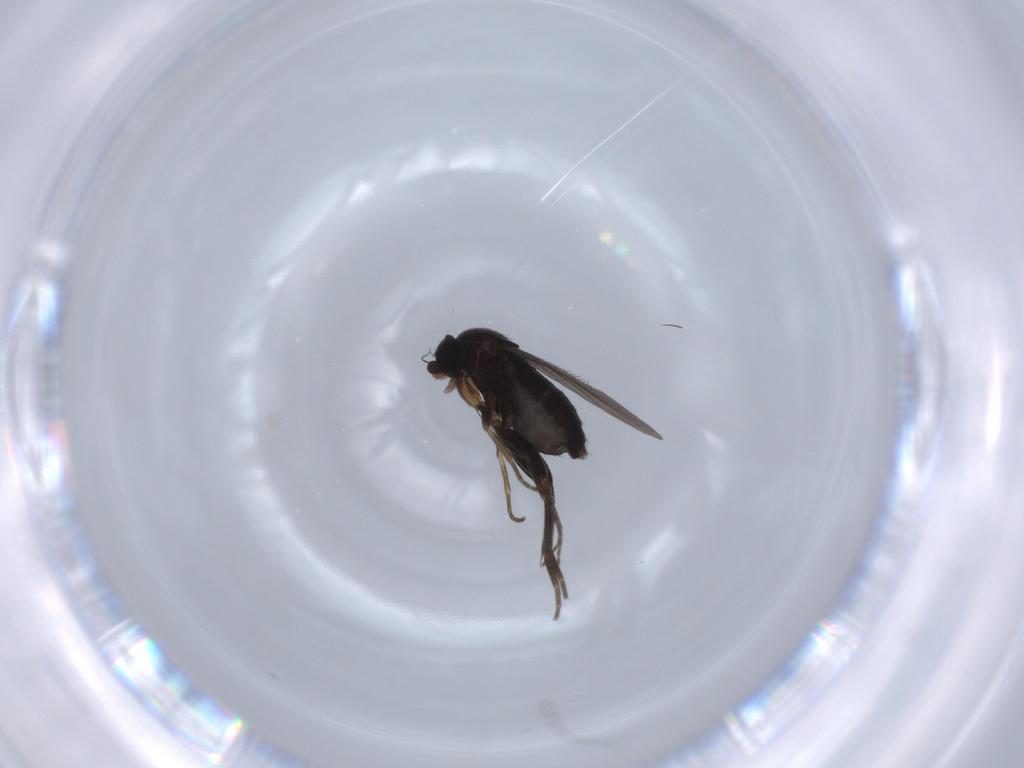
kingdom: Animalia
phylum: Arthropoda
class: Insecta
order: Diptera
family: Phoridae
